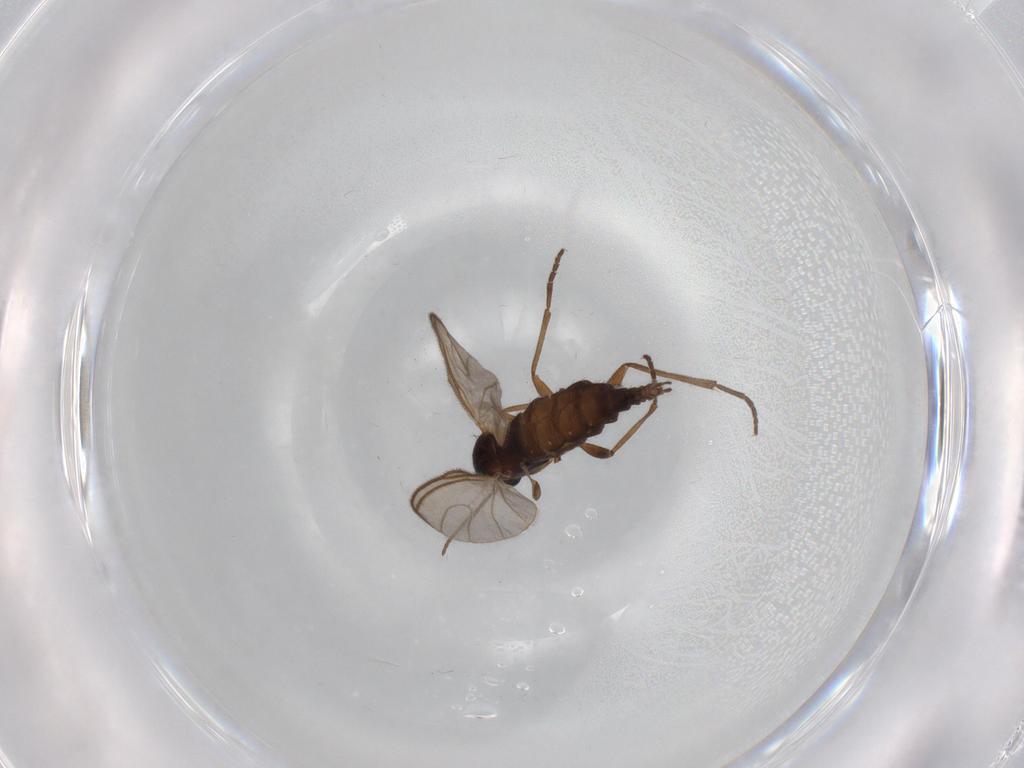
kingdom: Animalia
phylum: Arthropoda
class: Insecta
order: Diptera
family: Sciaridae
